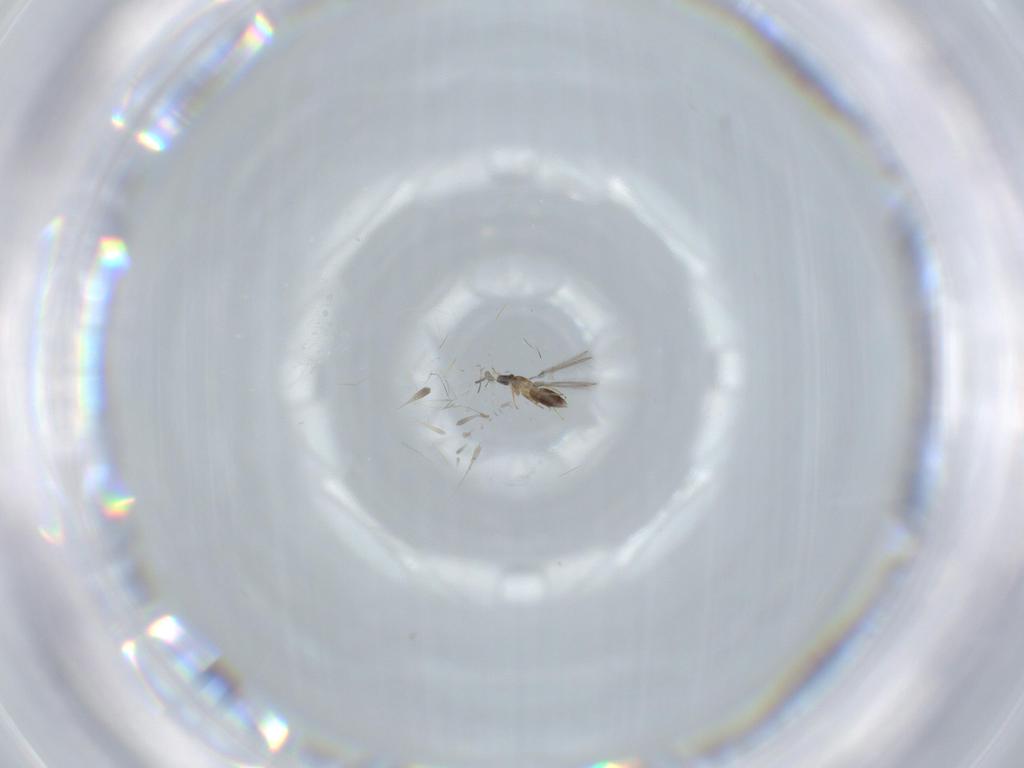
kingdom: Animalia
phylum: Arthropoda
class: Insecta
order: Hymenoptera
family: Mymaridae
